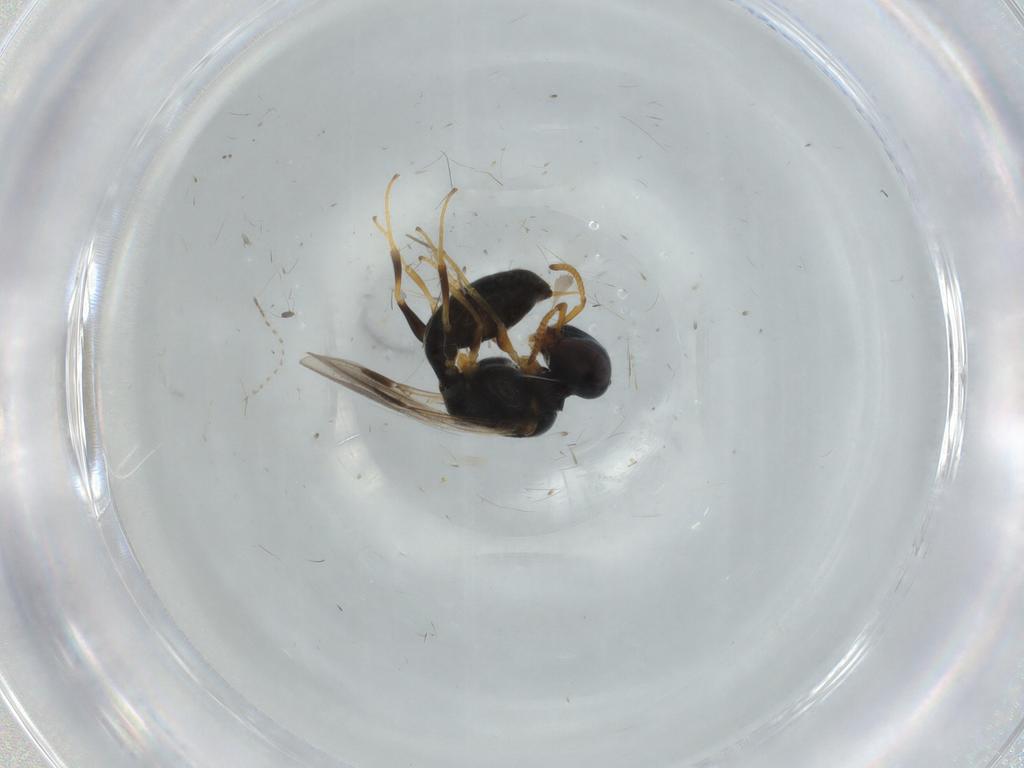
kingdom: Animalia
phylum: Arthropoda
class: Insecta
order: Hymenoptera
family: Pemphredonidae
